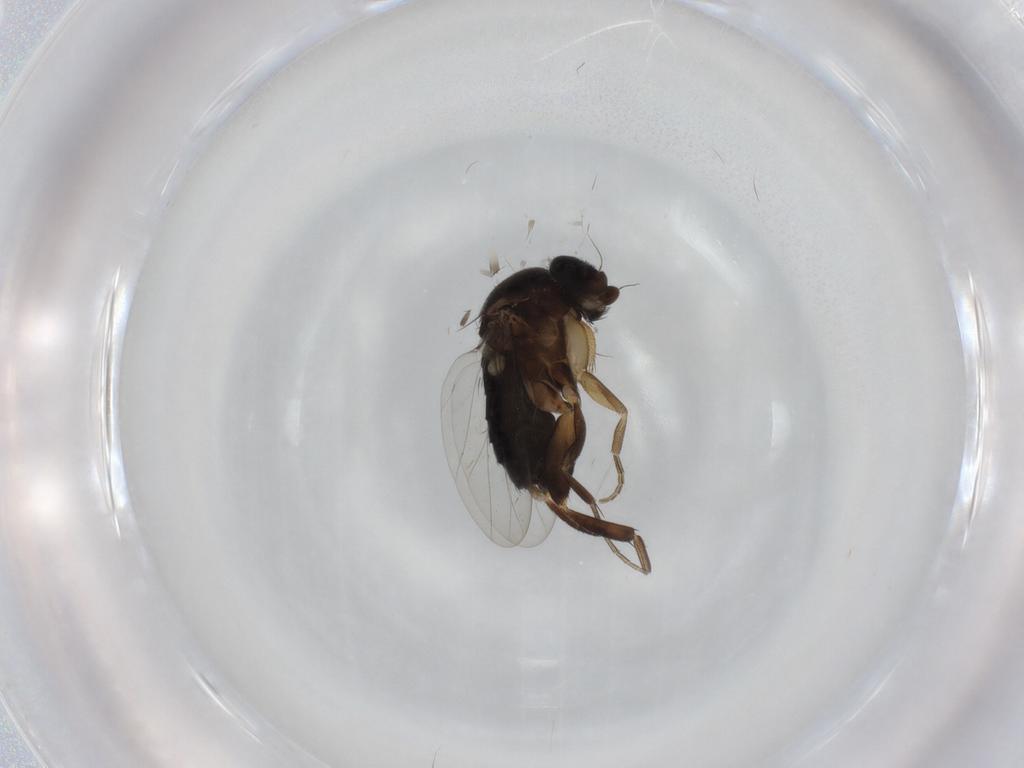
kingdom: Animalia
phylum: Arthropoda
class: Insecta
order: Diptera
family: Phoridae
